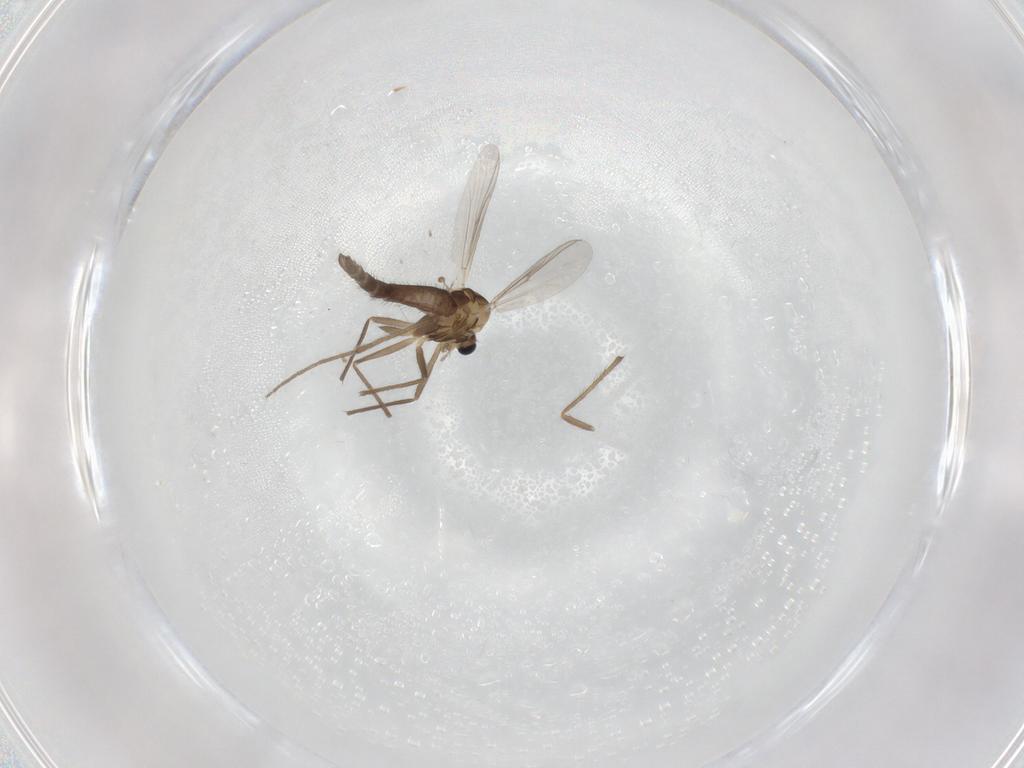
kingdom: Animalia
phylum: Arthropoda
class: Insecta
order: Diptera
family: Chironomidae
